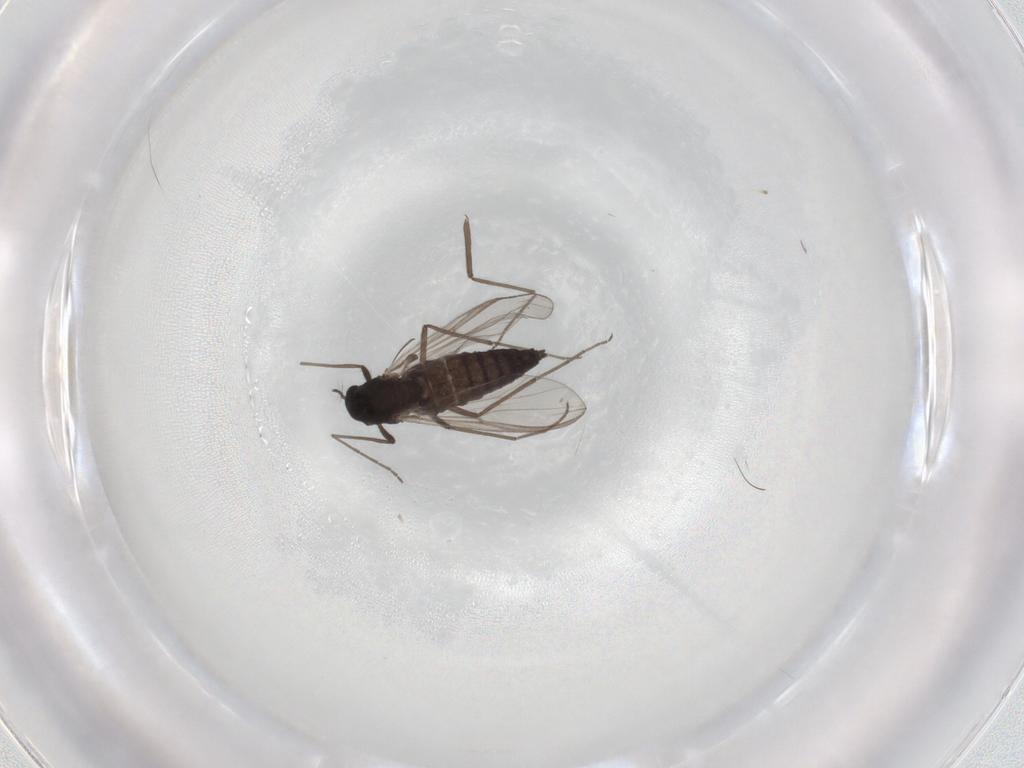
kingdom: Animalia
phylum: Arthropoda
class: Insecta
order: Diptera
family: Chironomidae
